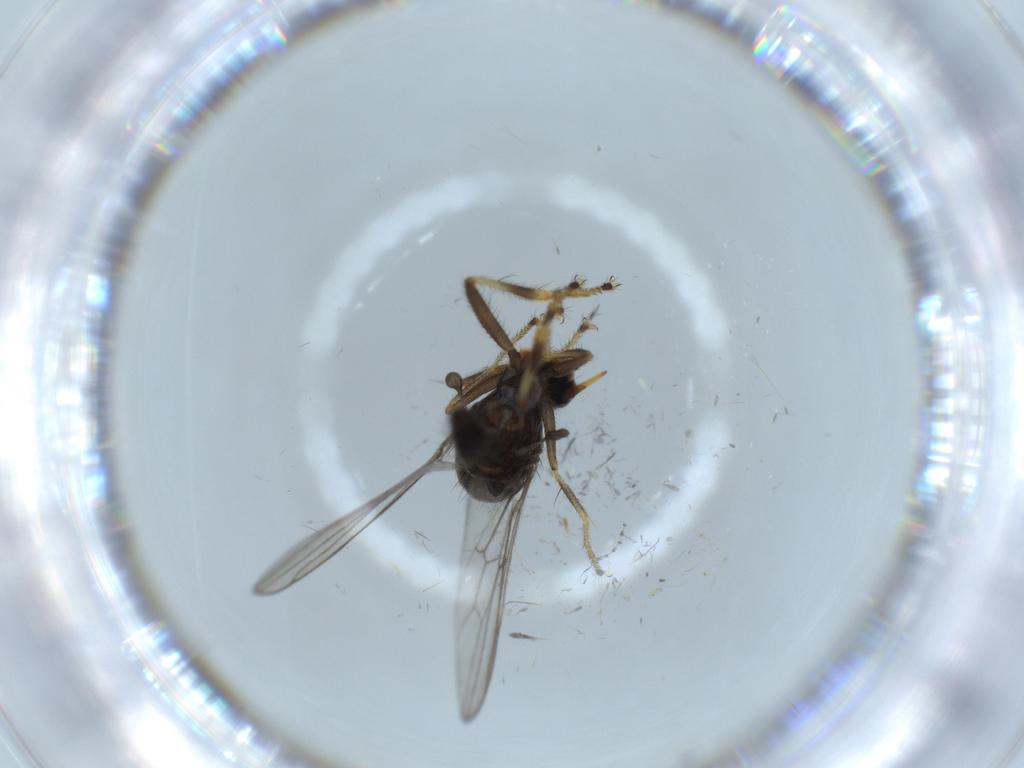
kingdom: Animalia
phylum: Arthropoda
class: Insecta
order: Diptera
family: Hybotidae
